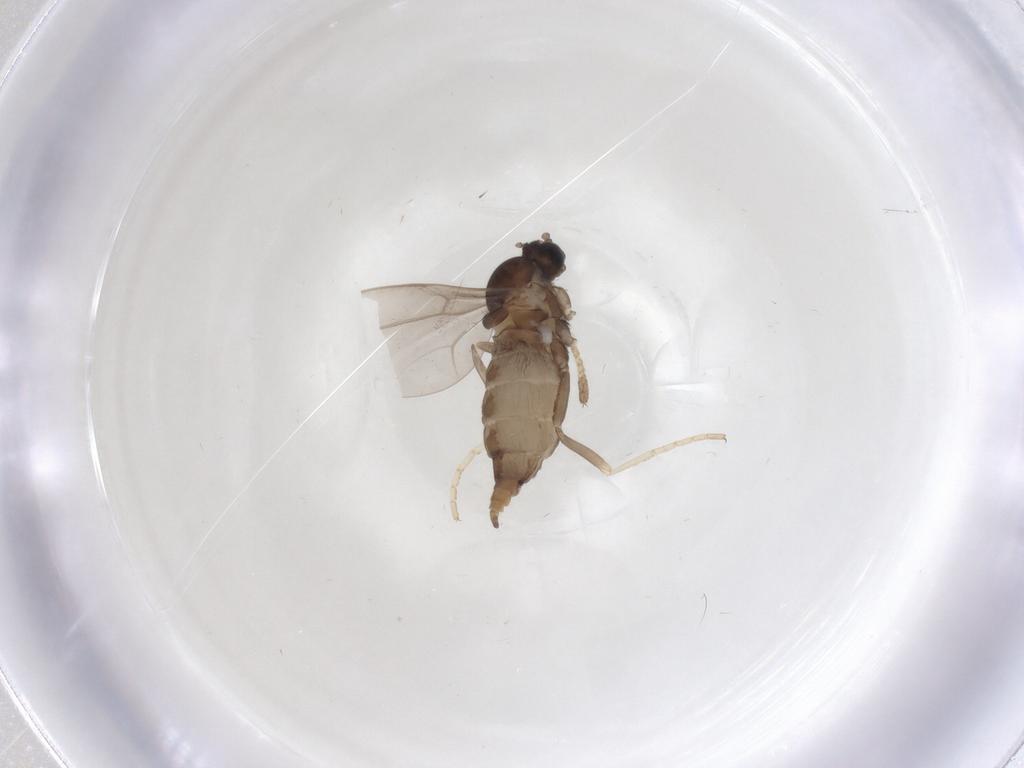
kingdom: Animalia
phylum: Arthropoda
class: Insecta
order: Diptera
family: Cecidomyiidae
